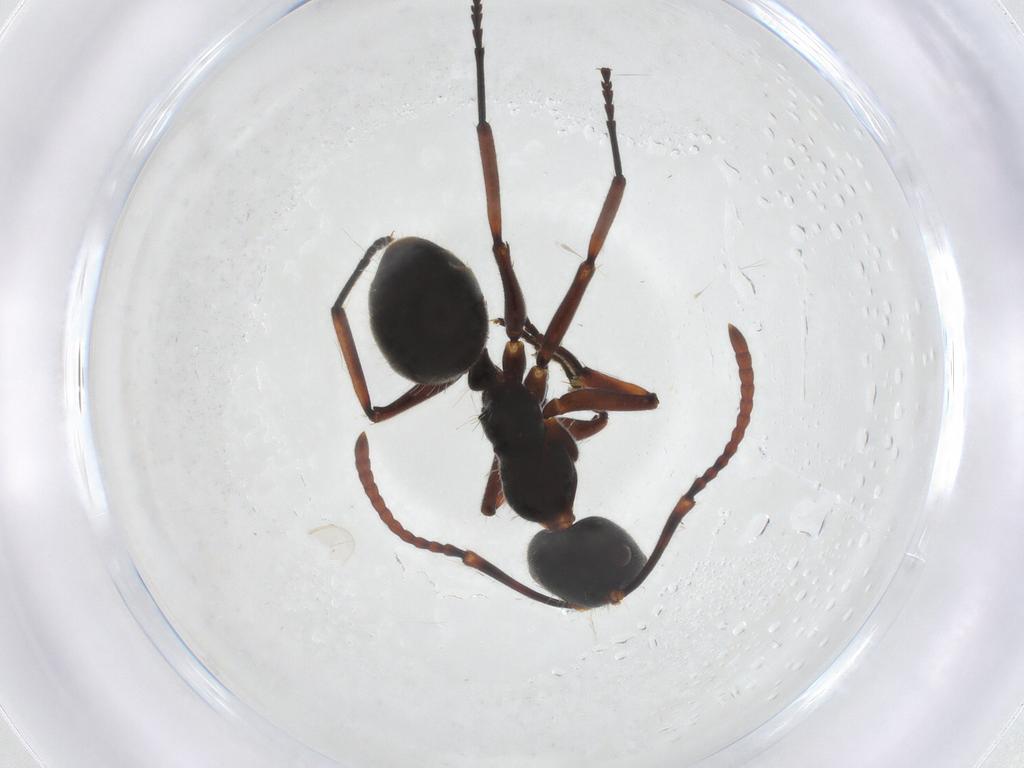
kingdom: Animalia
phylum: Arthropoda
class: Insecta
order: Hymenoptera
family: Formicidae
